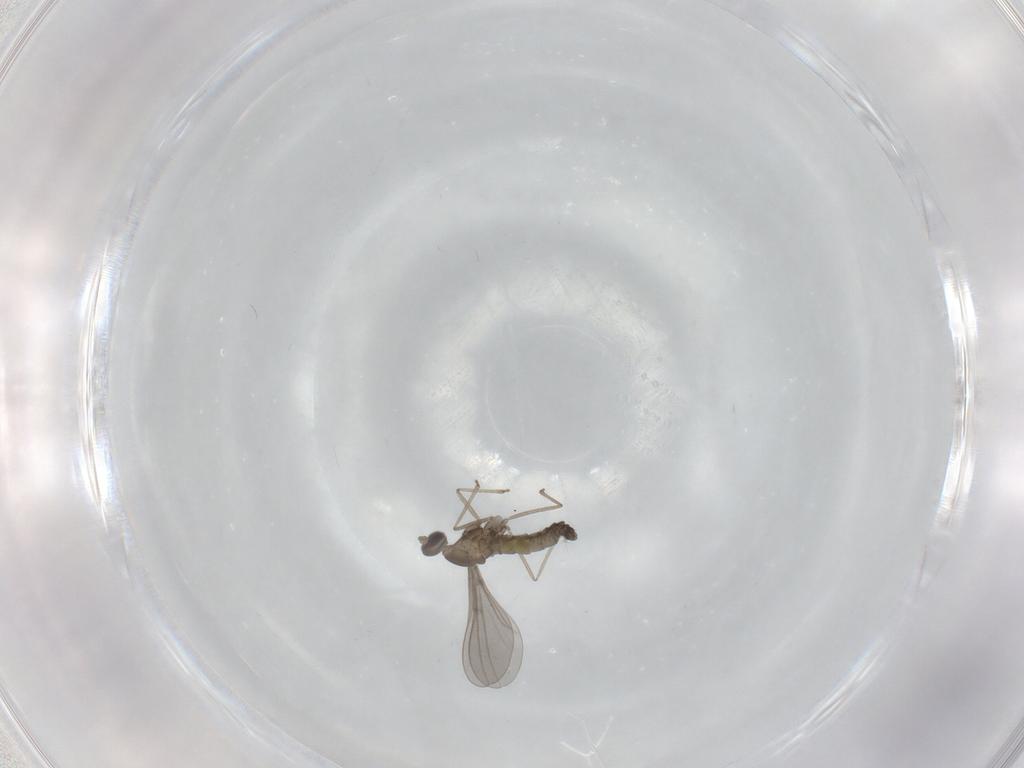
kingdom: Animalia
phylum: Arthropoda
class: Insecta
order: Diptera
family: Cecidomyiidae
